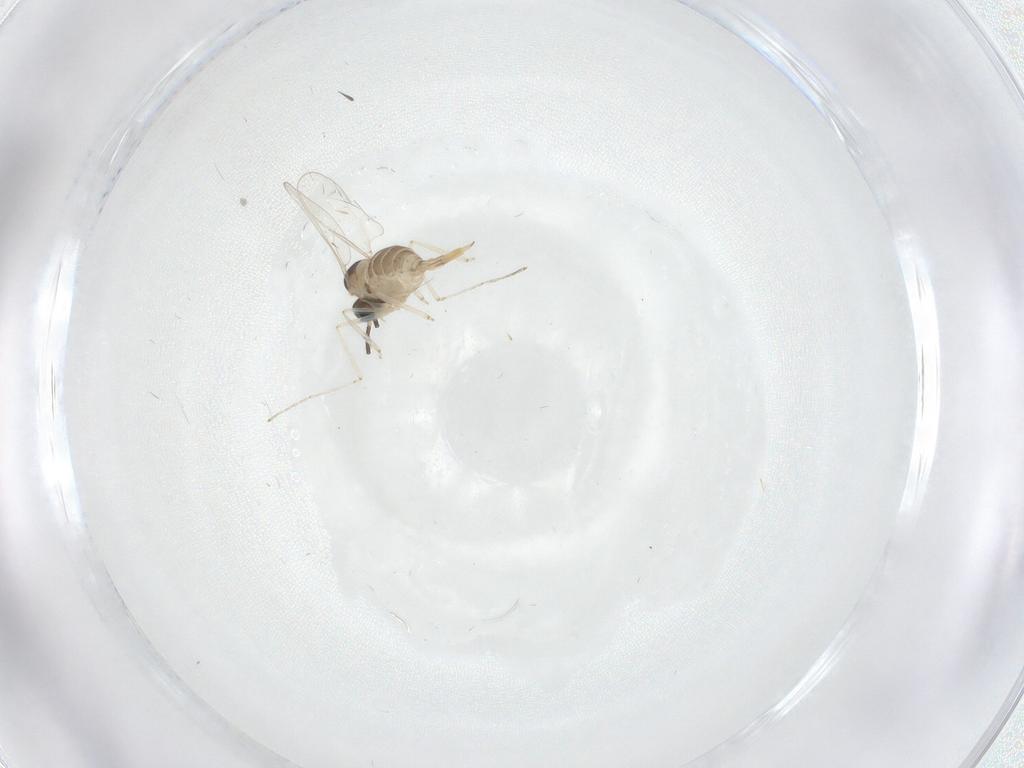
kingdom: Animalia
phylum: Arthropoda
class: Insecta
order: Diptera
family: Cecidomyiidae
